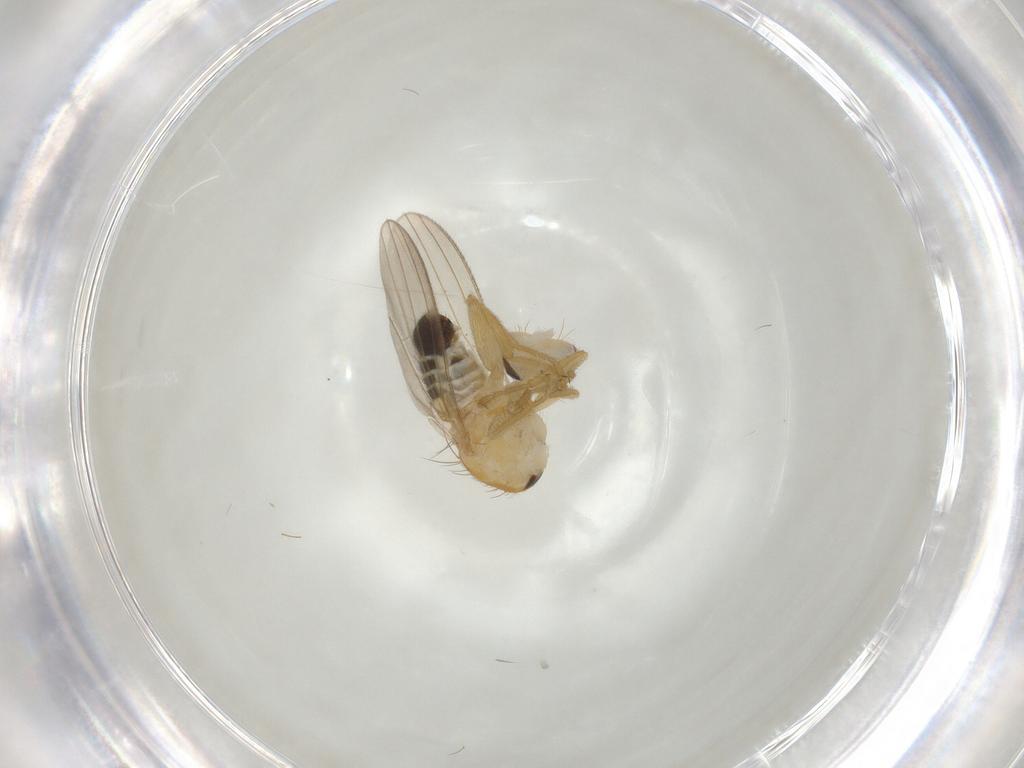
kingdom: Animalia
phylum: Arthropoda
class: Insecta
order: Diptera
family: Chyromyidae
